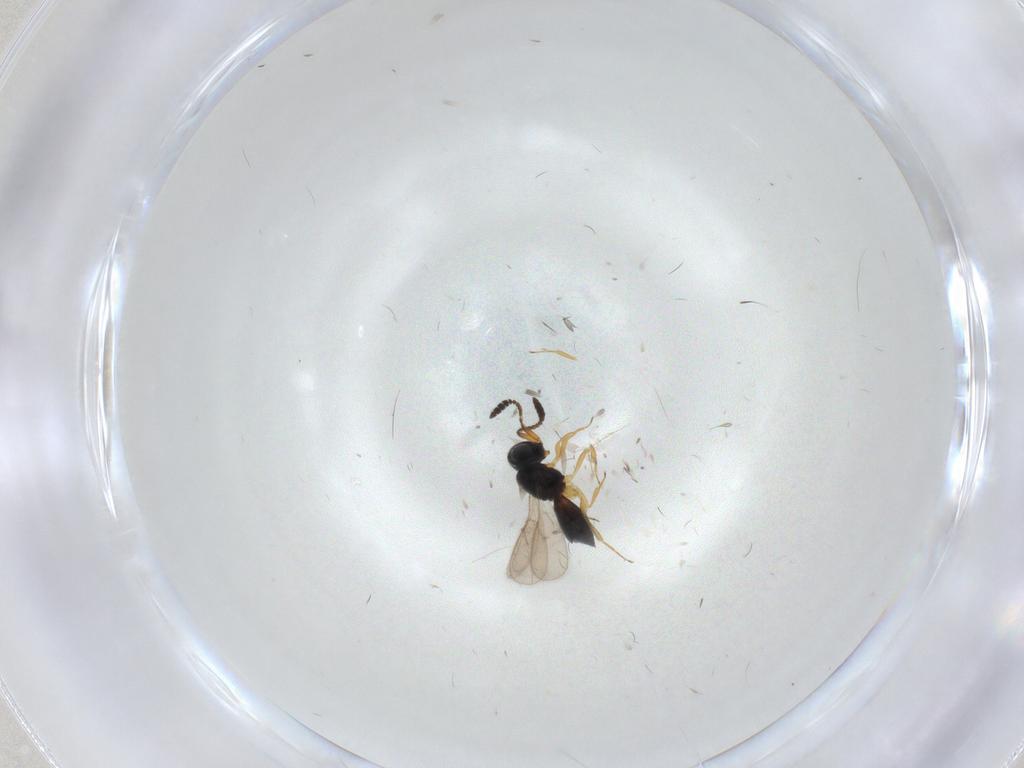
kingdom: Animalia
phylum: Arthropoda
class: Insecta
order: Hymenoptera
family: Scelionidae
